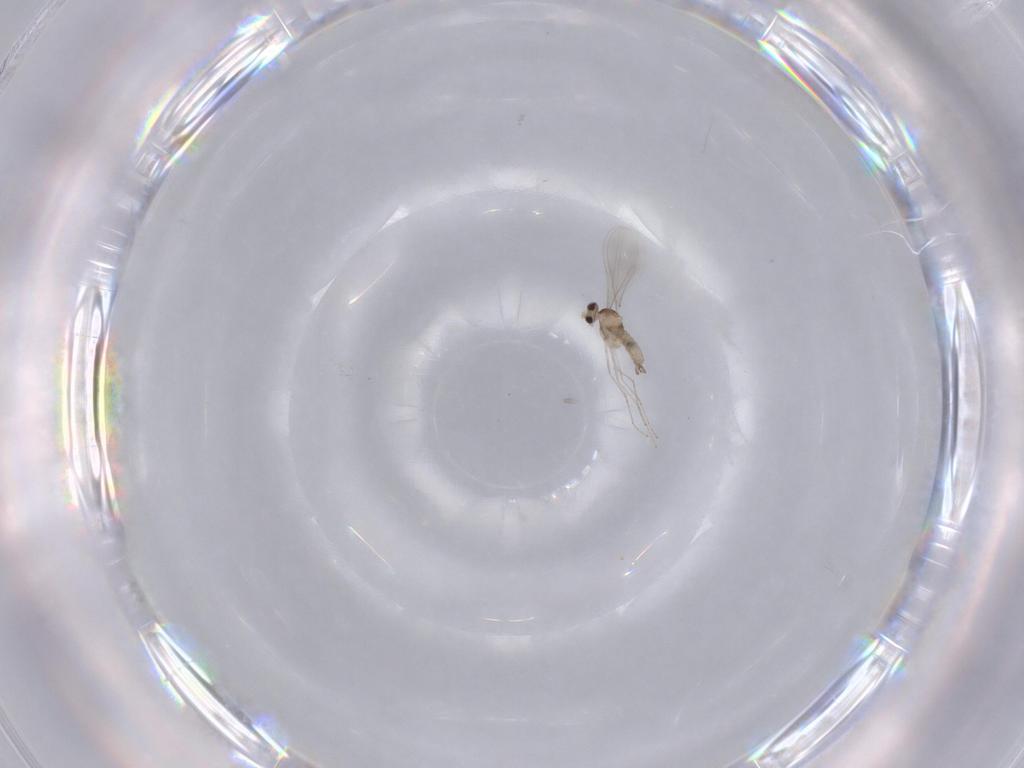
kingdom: Animalia
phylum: Arthropoda
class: Insecta
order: Diptera
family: Cecidomyiidae
